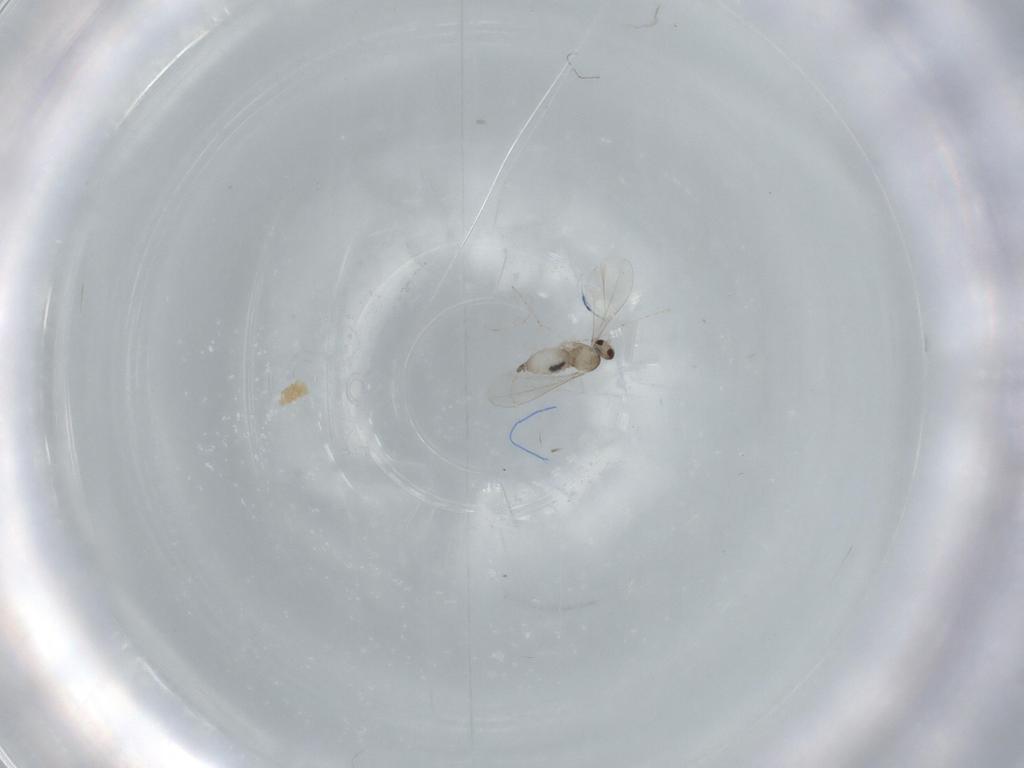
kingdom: Animalia
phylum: Arthropoda
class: Insecta
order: Diptera
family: Cecidomyiidae
